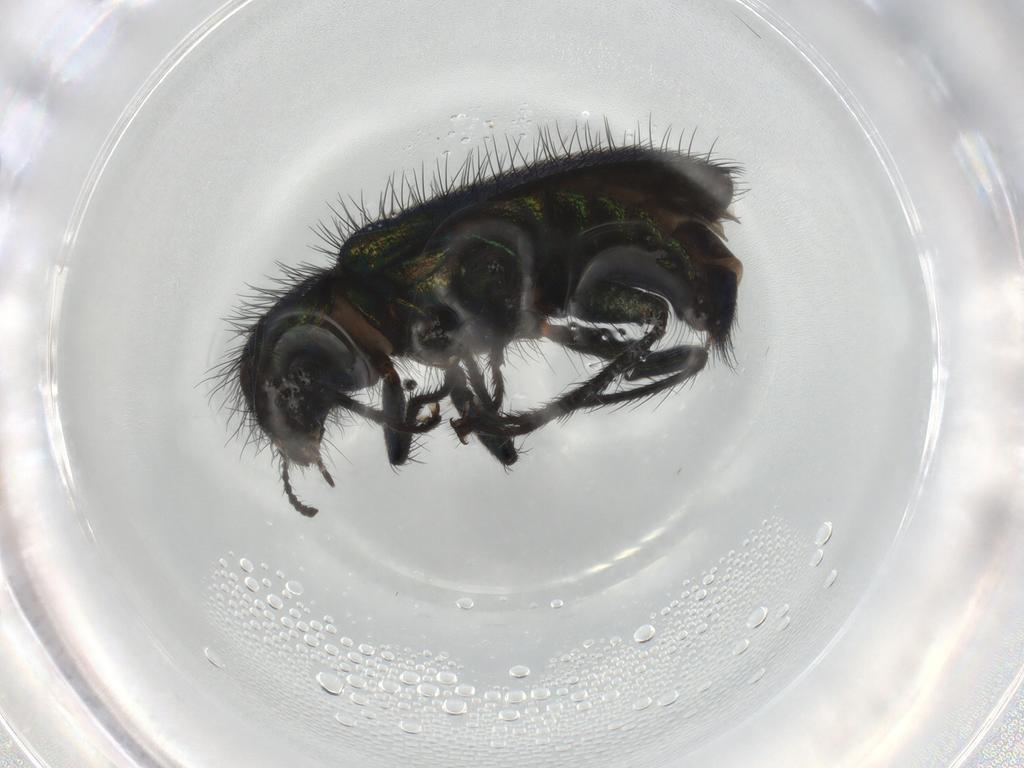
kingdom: Animalia
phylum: Arthropoda
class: Insecta
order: Coleoptera
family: Melyridae
